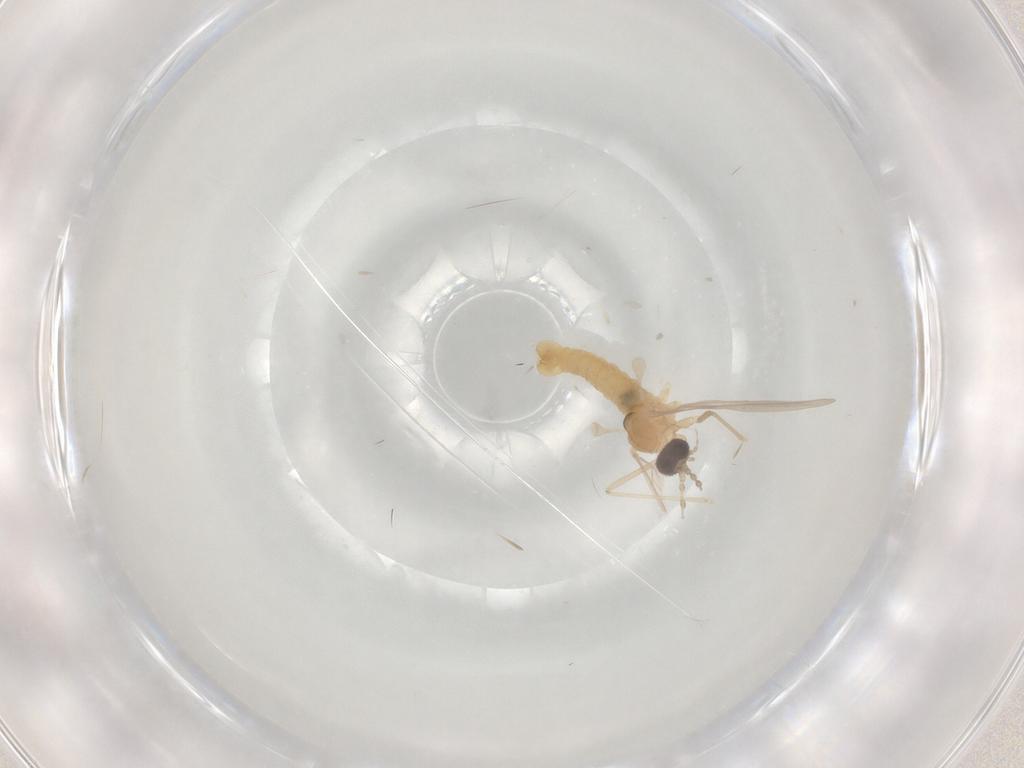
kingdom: Animalia
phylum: Arthropoda
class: Insecta
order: Diptera
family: Cecidomyiidae
